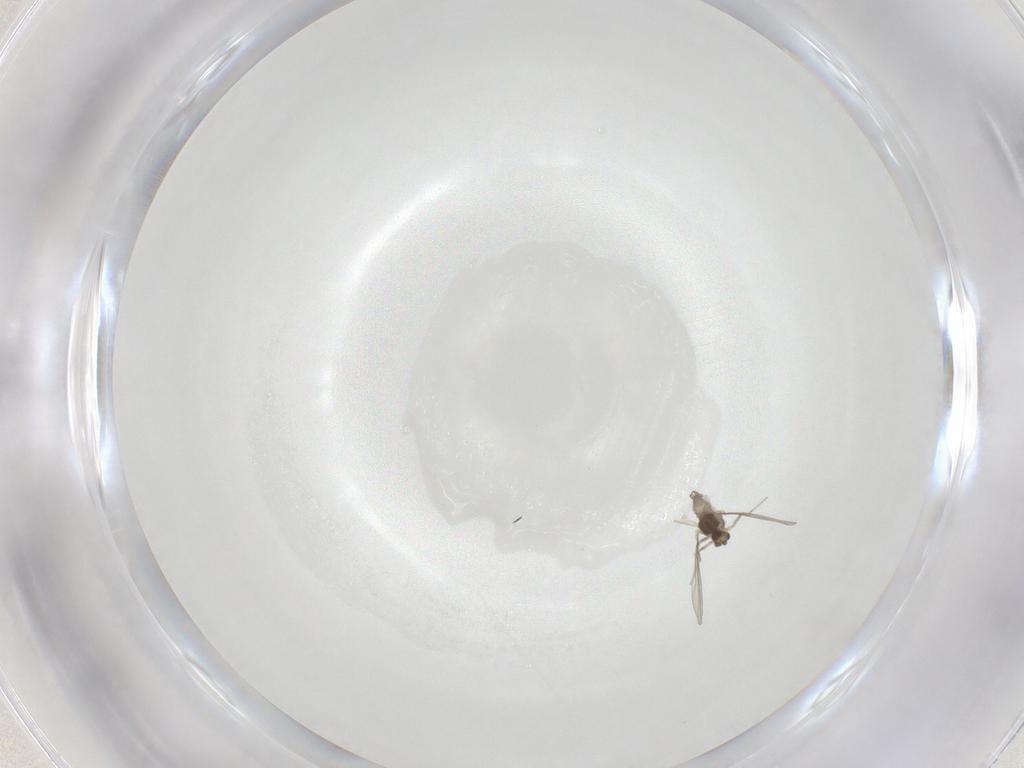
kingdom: Animalia
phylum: Arthropoda
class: Insecta
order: Diptera
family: Cecidomyiidae
